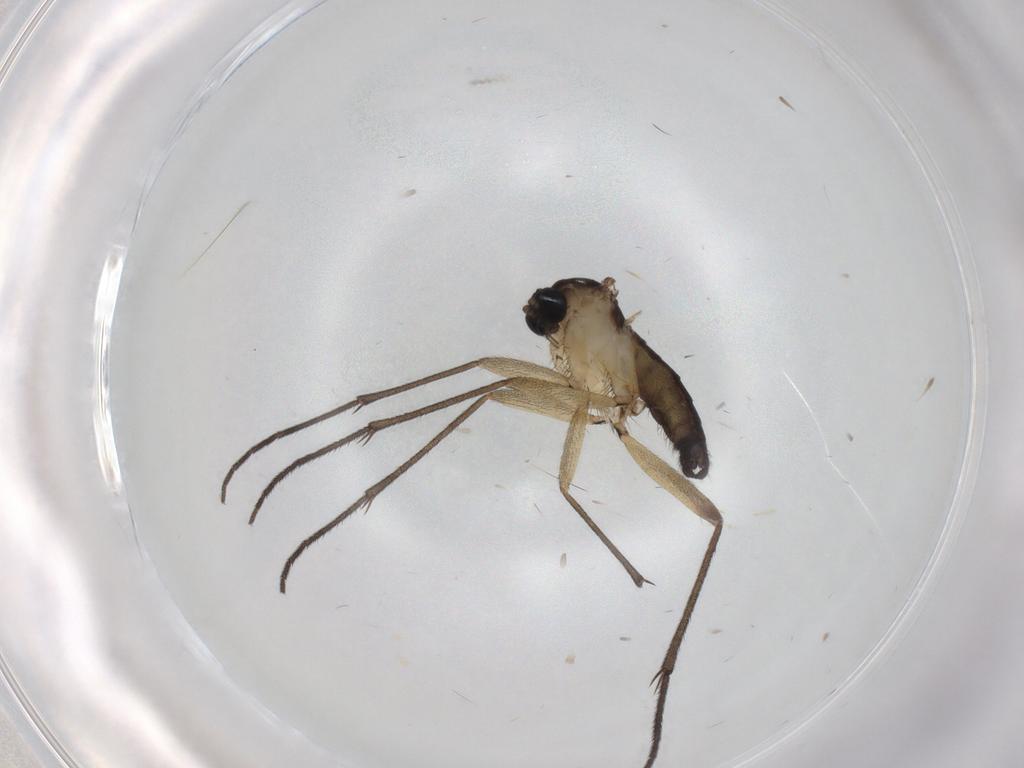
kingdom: Animalia
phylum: Arthropoda
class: Insecta
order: Diptera
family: Sciaridae
